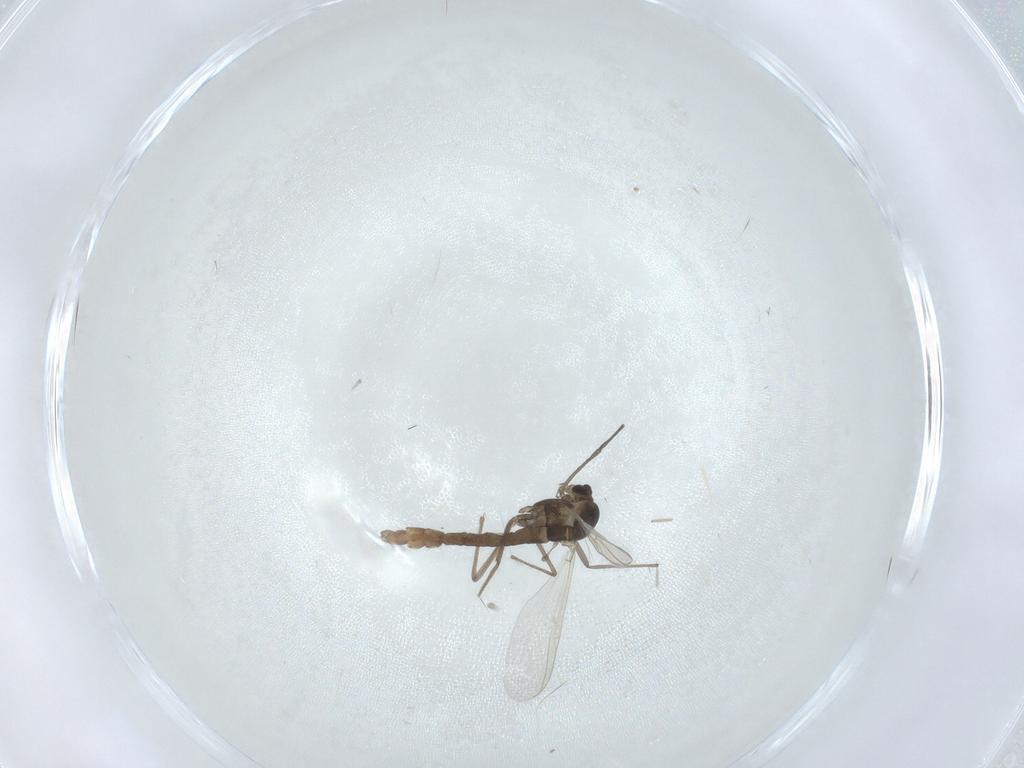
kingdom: Animalia
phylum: Arthropoda
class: Insecta
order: Diptera
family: Chironomidae
